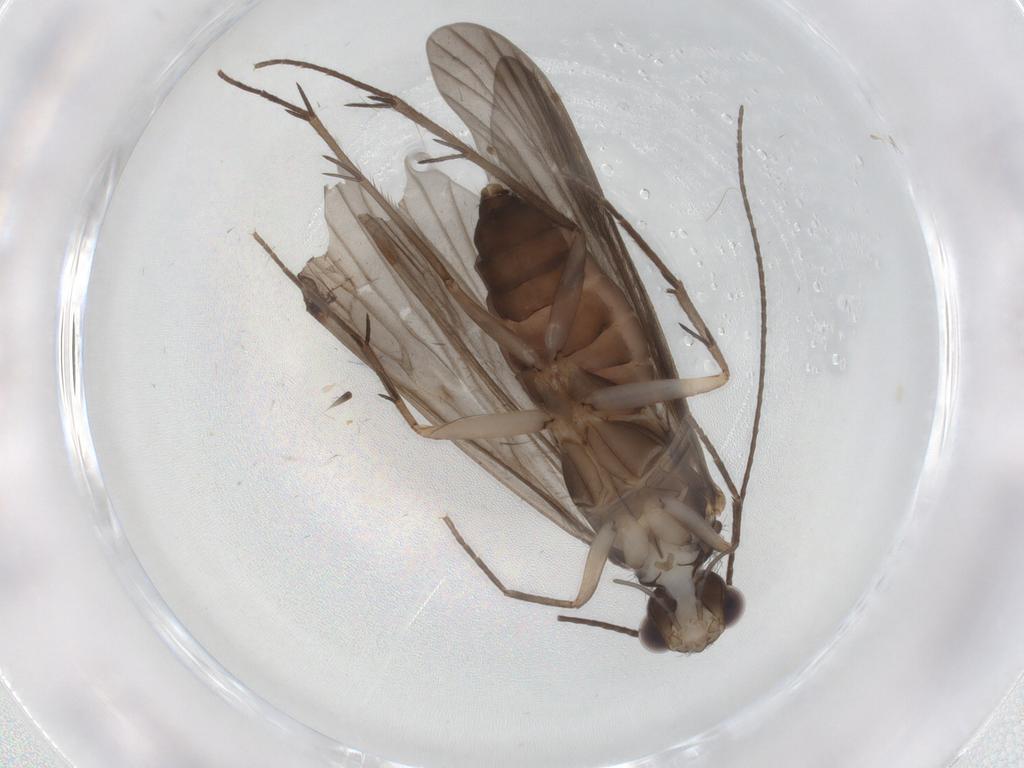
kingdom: Animalia
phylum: Arthropoda
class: Insecta
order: Trichoptera
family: Philopotamidae
